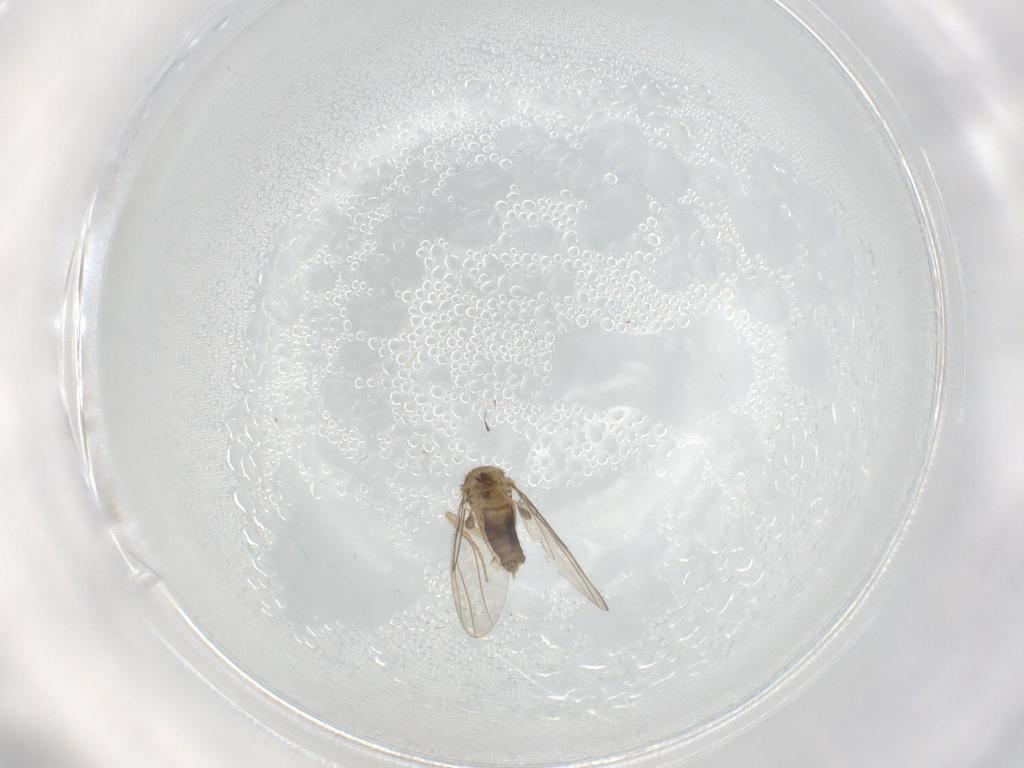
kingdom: Animalia
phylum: Arthropoda
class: Insecta
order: Diptera
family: Phoridae
